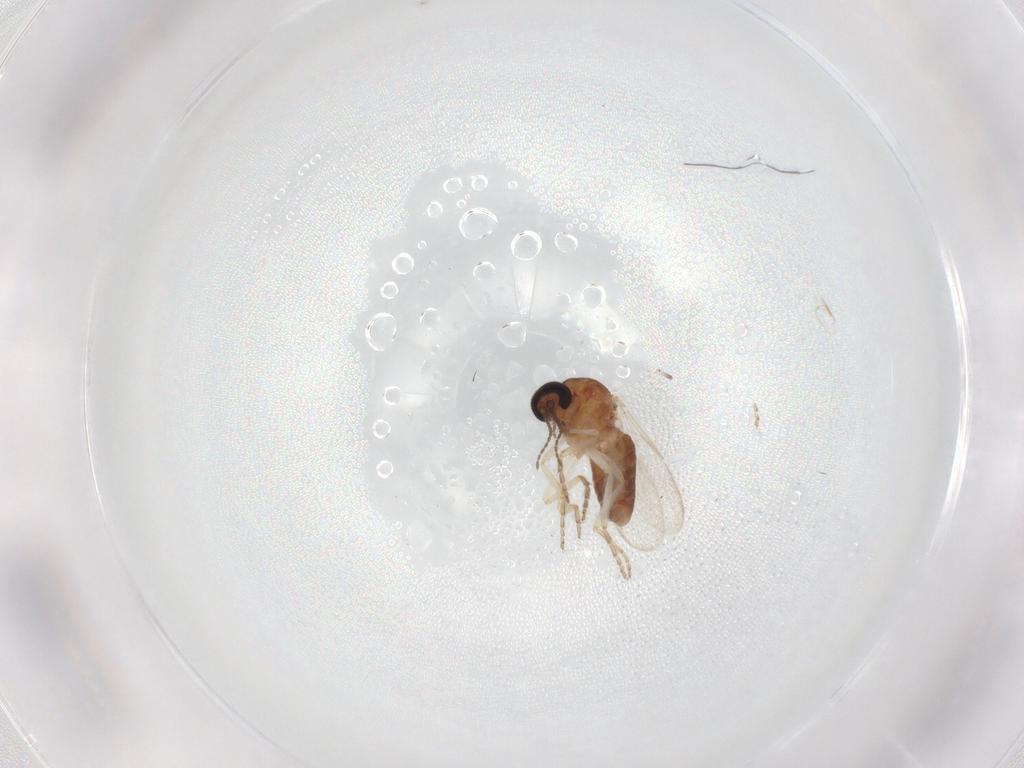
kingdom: Animalia
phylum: Arthropoda
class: Insecta
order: Diptera
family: Ceratopogonidae
